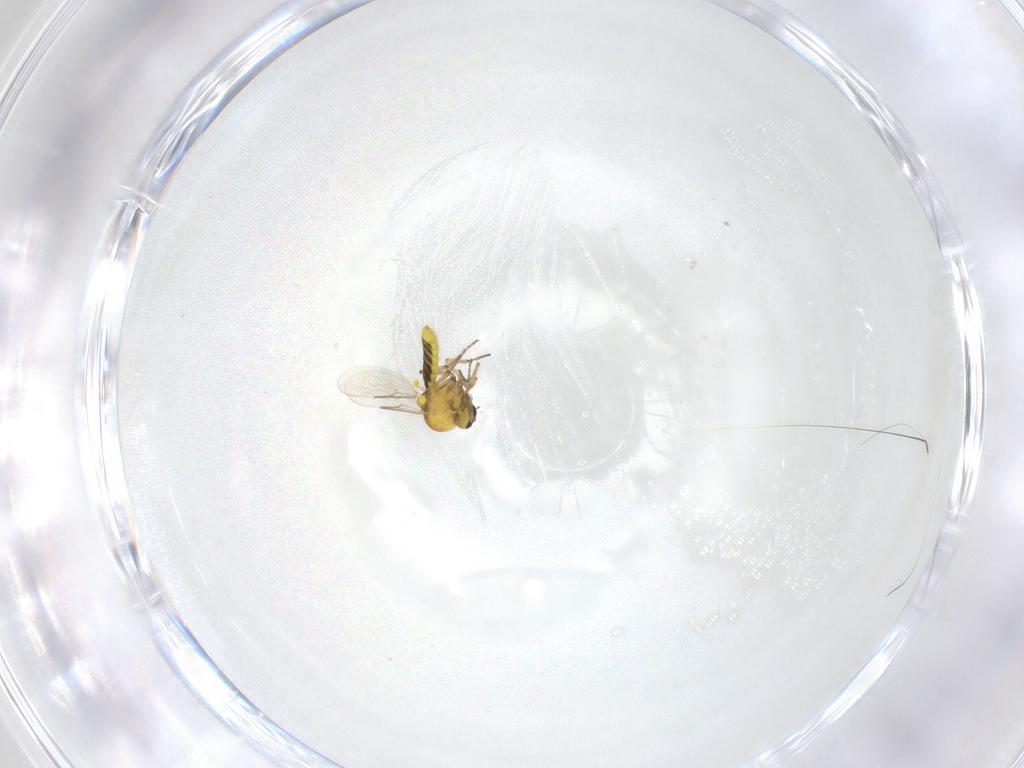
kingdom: Animalia
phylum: Arthropoda
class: Insecta
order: Diptera
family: Ceratopogonidae
